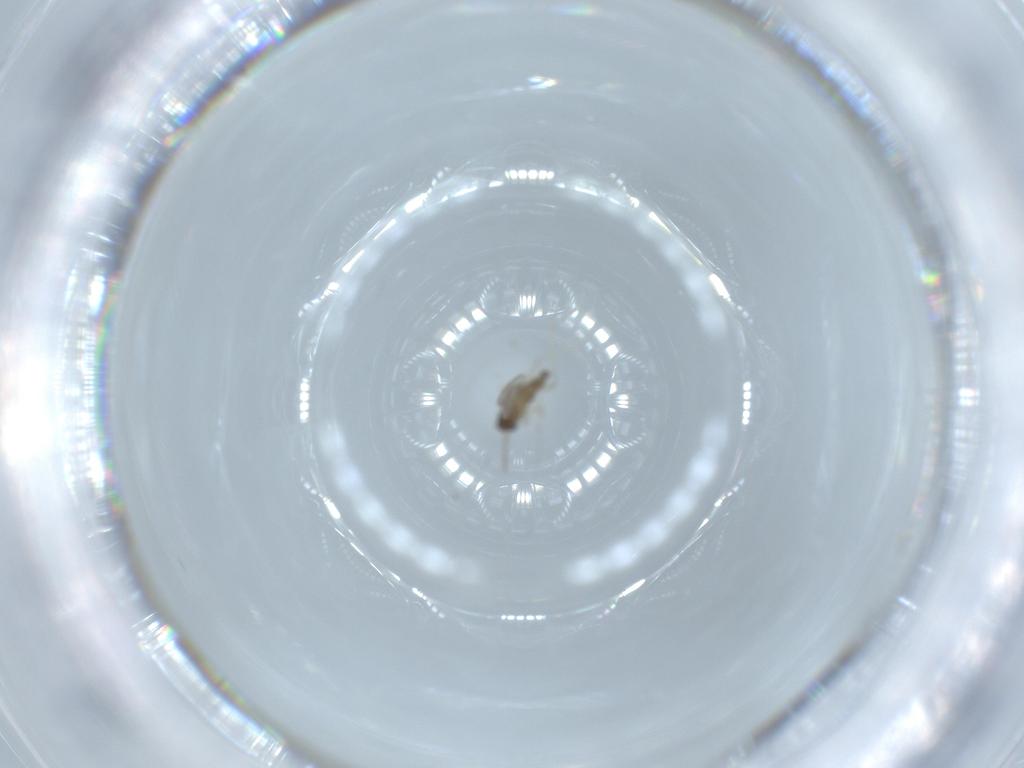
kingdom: Animalia
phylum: Arthropoda
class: Insecta
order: Diptera
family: Cecidomyiidae
